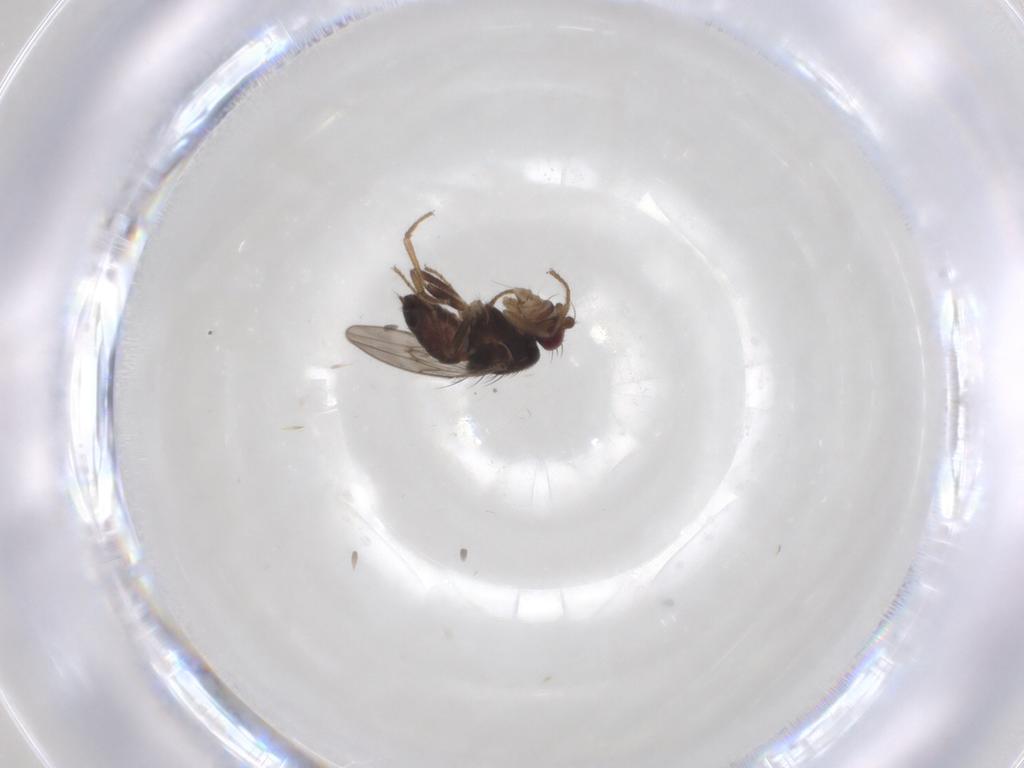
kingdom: Animalia
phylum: Arthropoda
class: Insecta
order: Diptera
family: Sphaeroceridae
